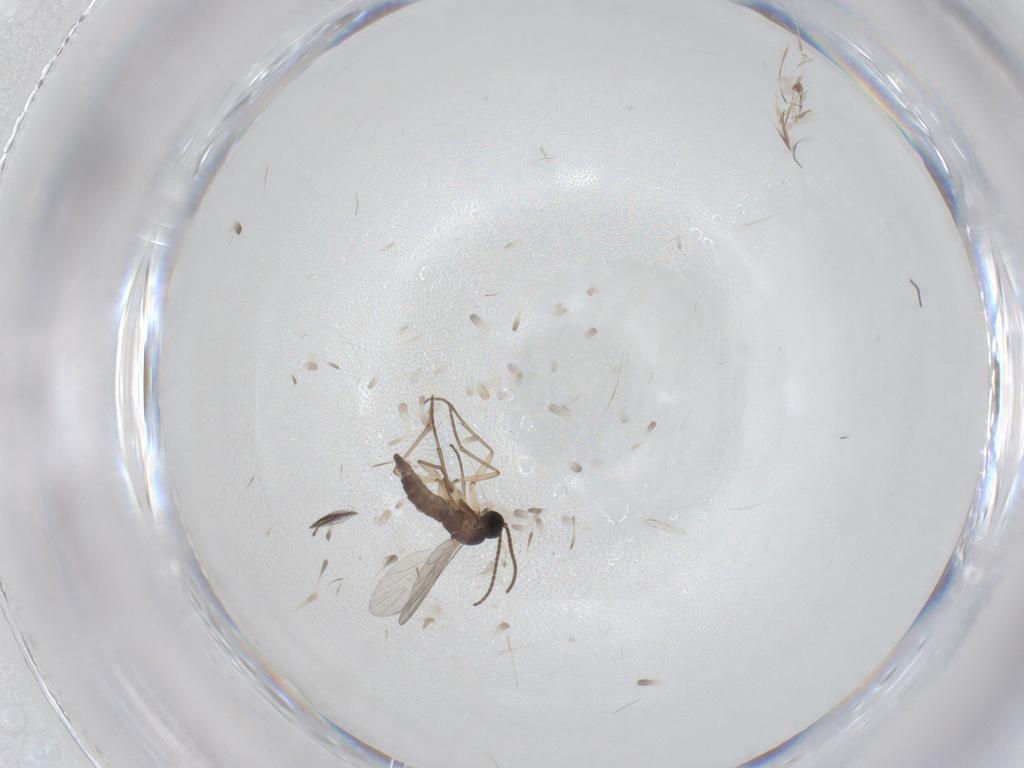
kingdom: Animalia
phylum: Arthropoda
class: Insecta
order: Diptera
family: Sciaridae
